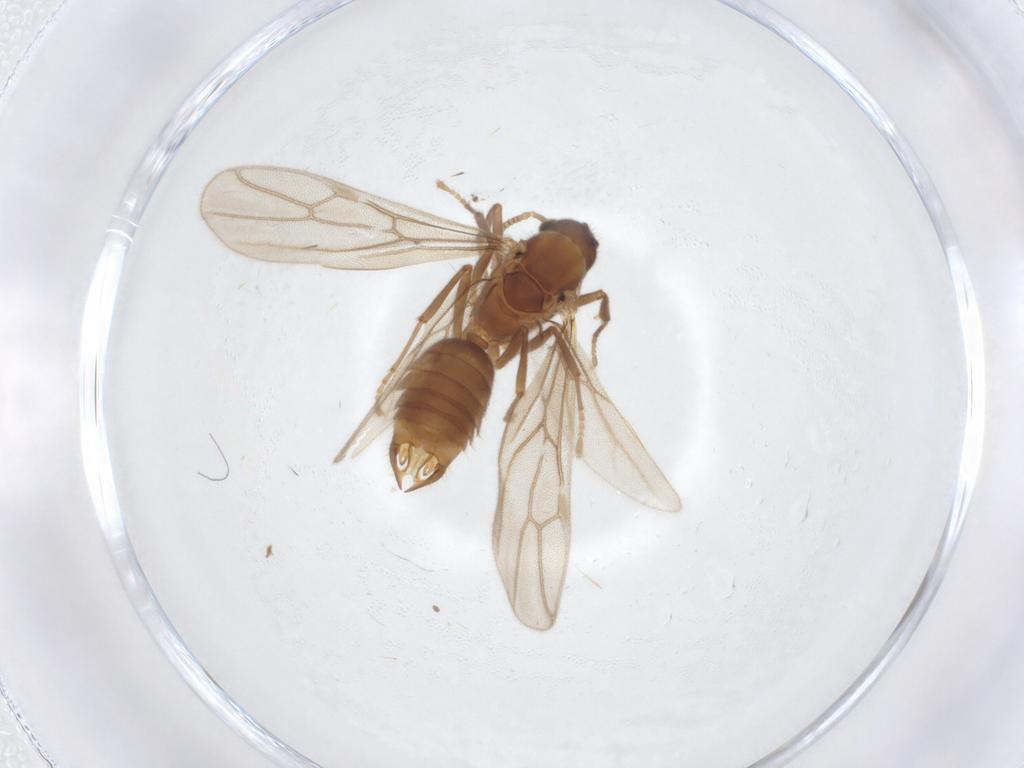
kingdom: Animalia
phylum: Arthropoda
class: Insecta
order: Hymenoptera
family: Formicidae
